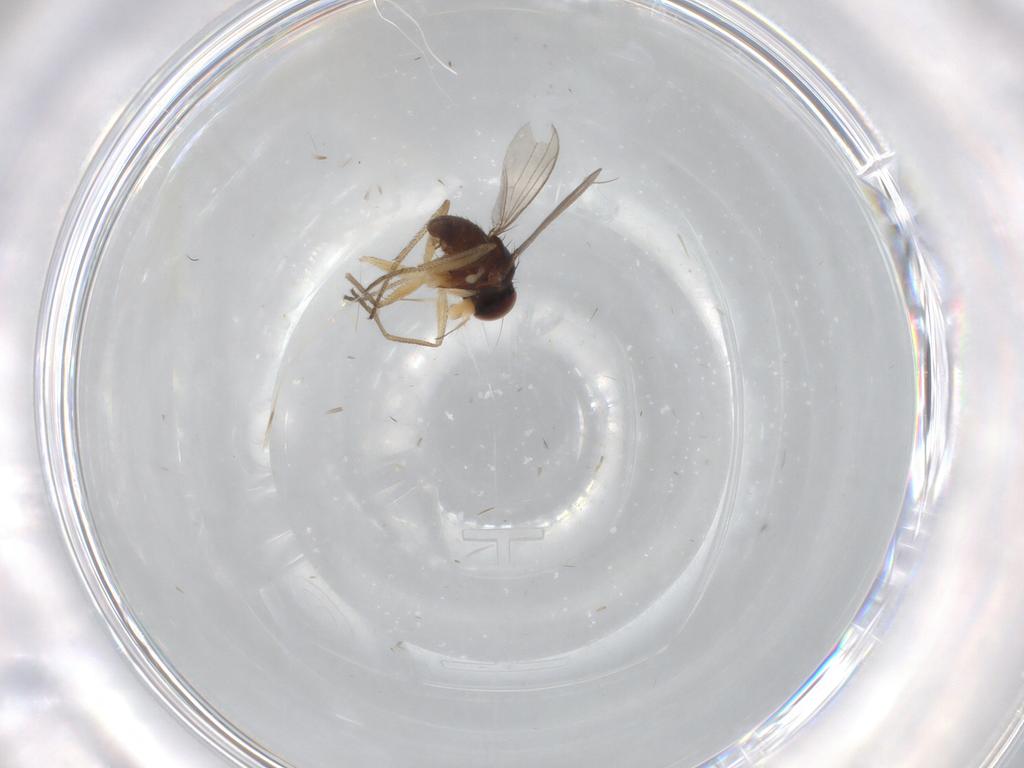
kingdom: Animalia
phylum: Arthropoda
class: Insecta
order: Diptera
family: Dolichopodidae
